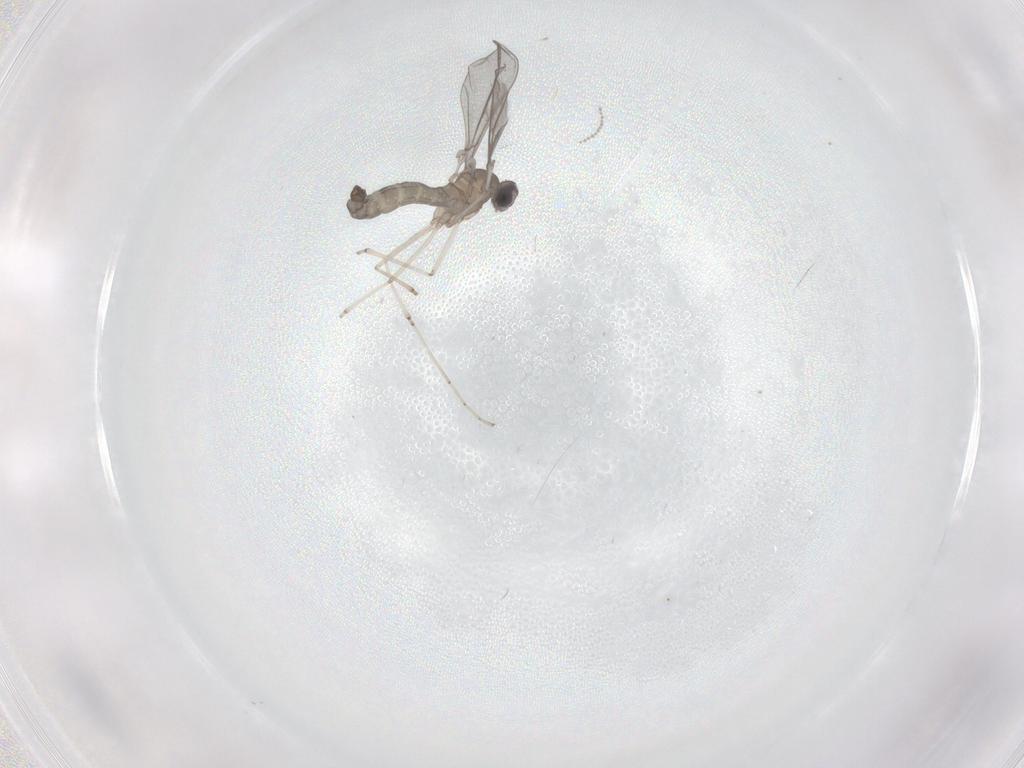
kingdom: Animalia
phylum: Arthropoda
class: Insecta
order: Diptera
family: Cecidomyiidae
